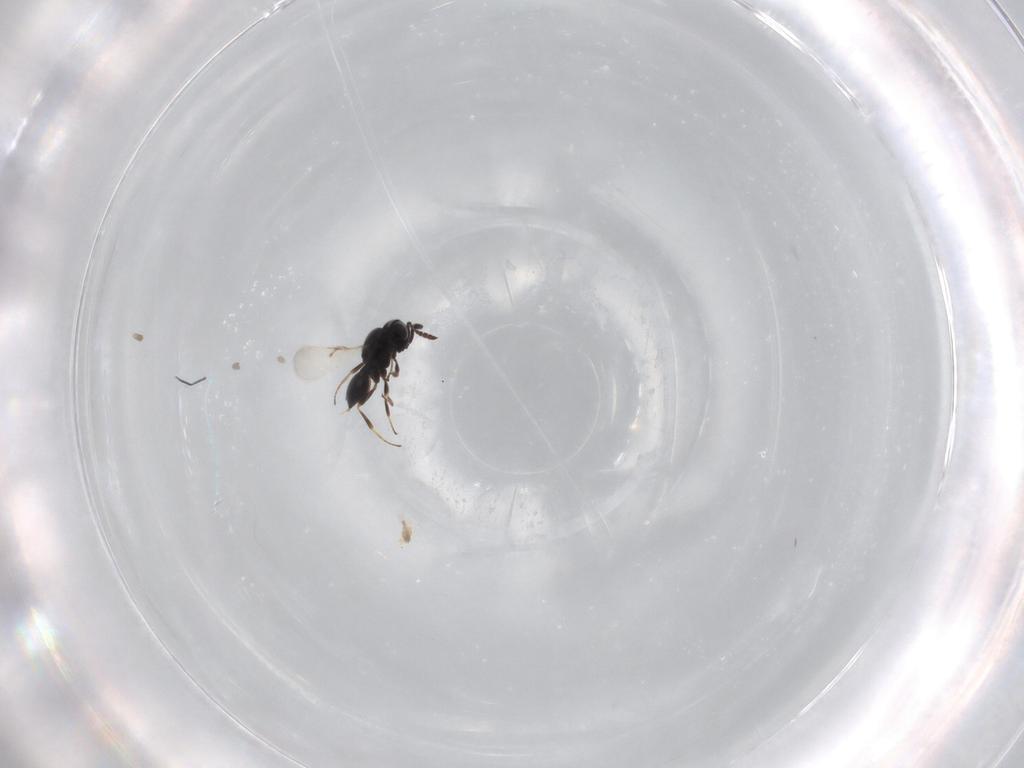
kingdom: Animalia
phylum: Arthropoda
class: Insecta
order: Hymenoptera
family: Scelionidae
